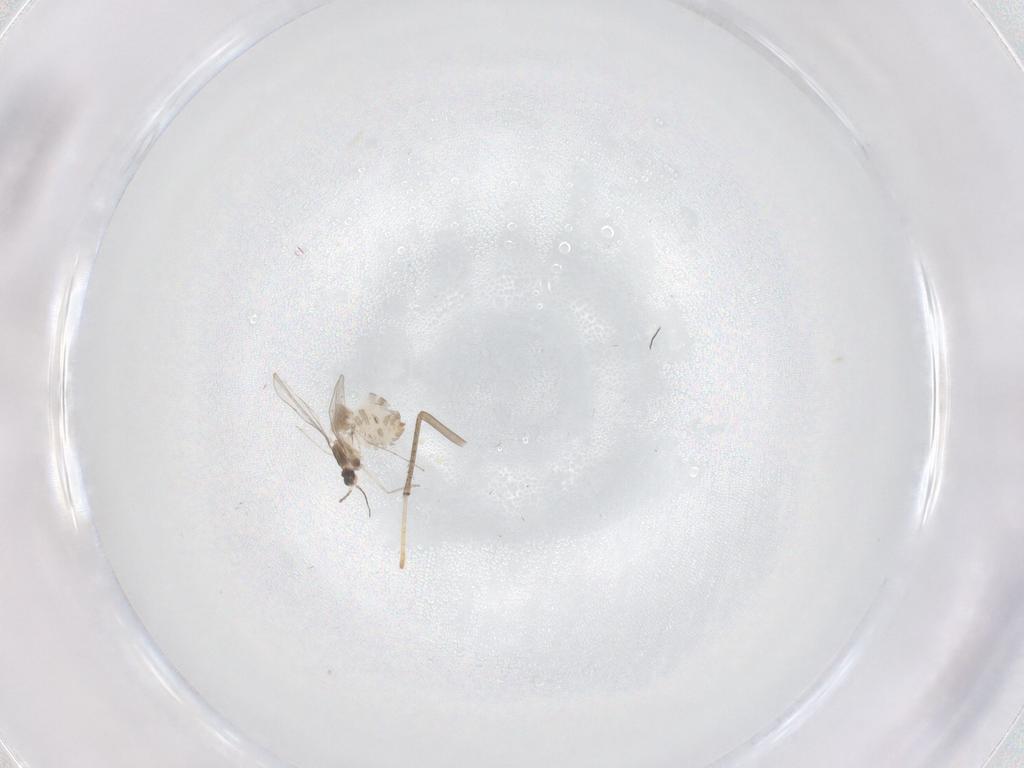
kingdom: Animalia
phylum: Arthropoda
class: Insecta
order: Diptera
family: Cecidomyiidae
